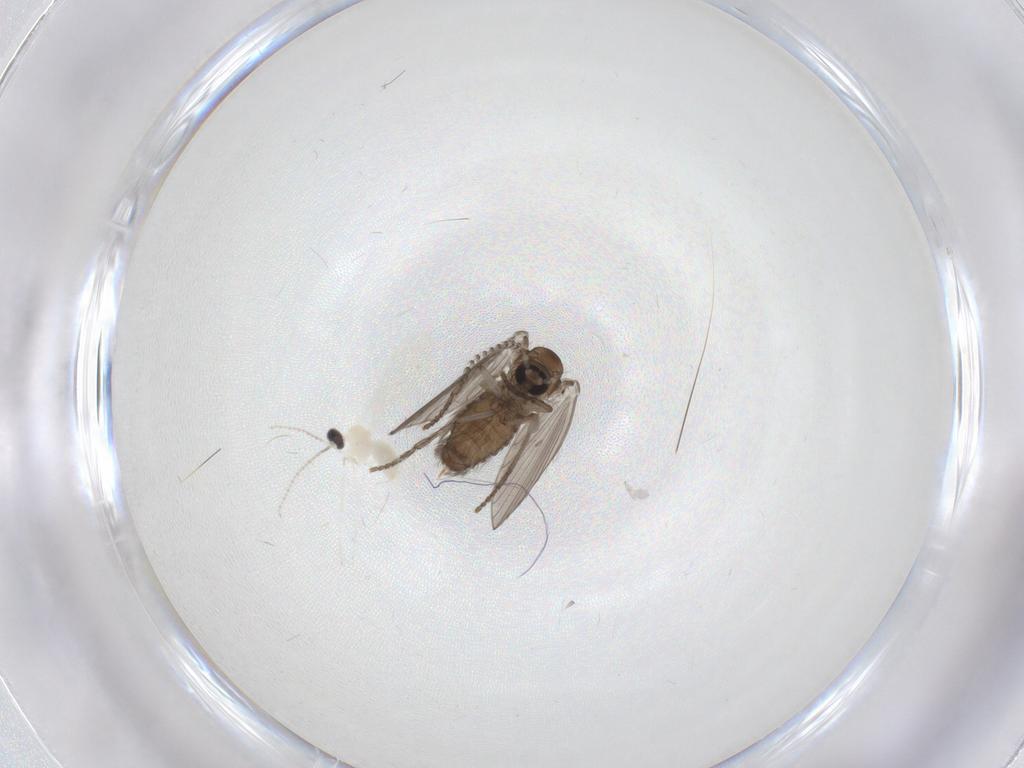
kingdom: Animalia
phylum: Arthropoda
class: Insecta
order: Diptera
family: Cecidomyiidae
